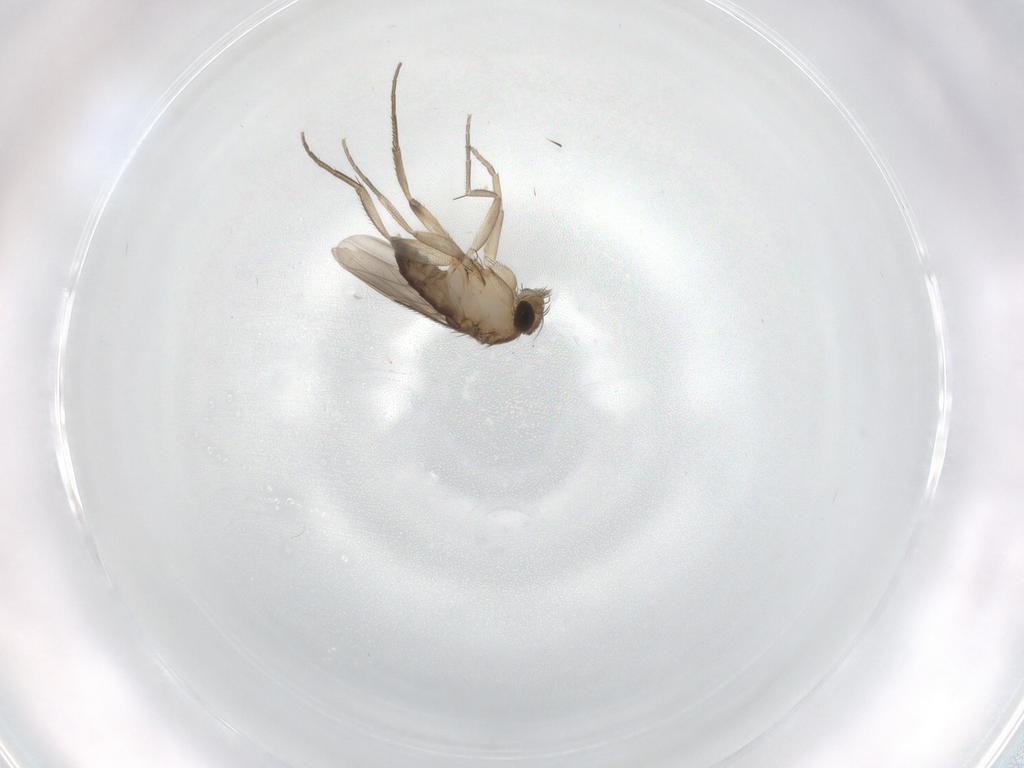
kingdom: Animalia
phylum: Arthropoda
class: Insecta
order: Diptera
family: Phoridae
